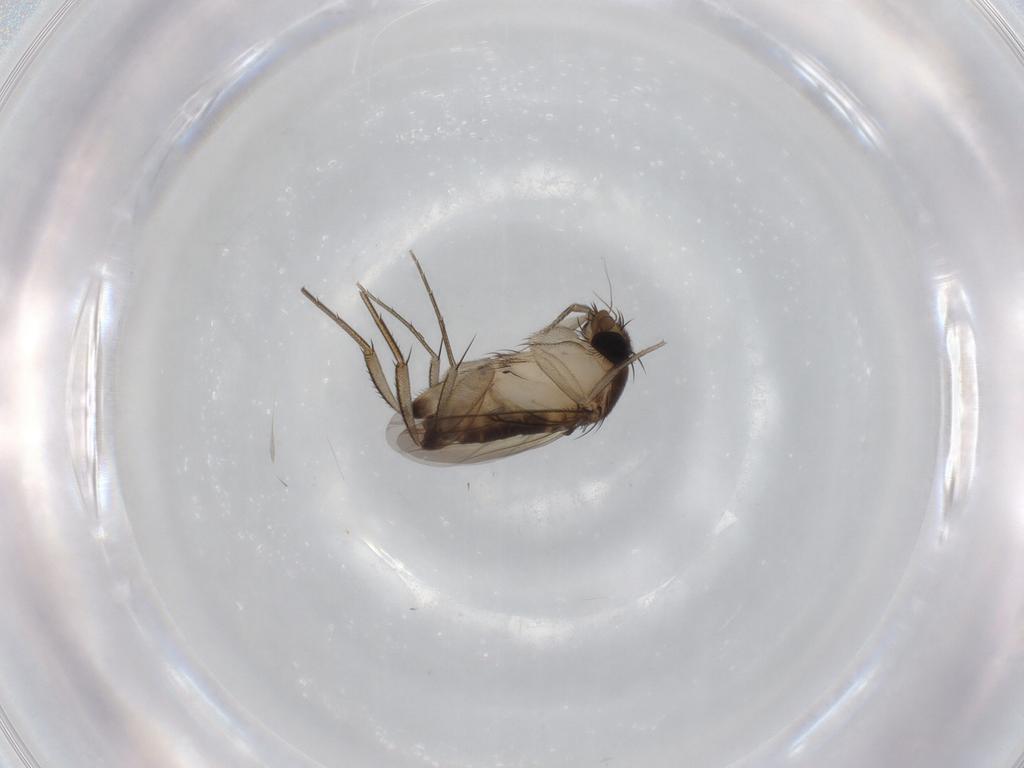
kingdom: Animalia
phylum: Arthropoda
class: Insecta
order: Diptera
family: Phoridae
